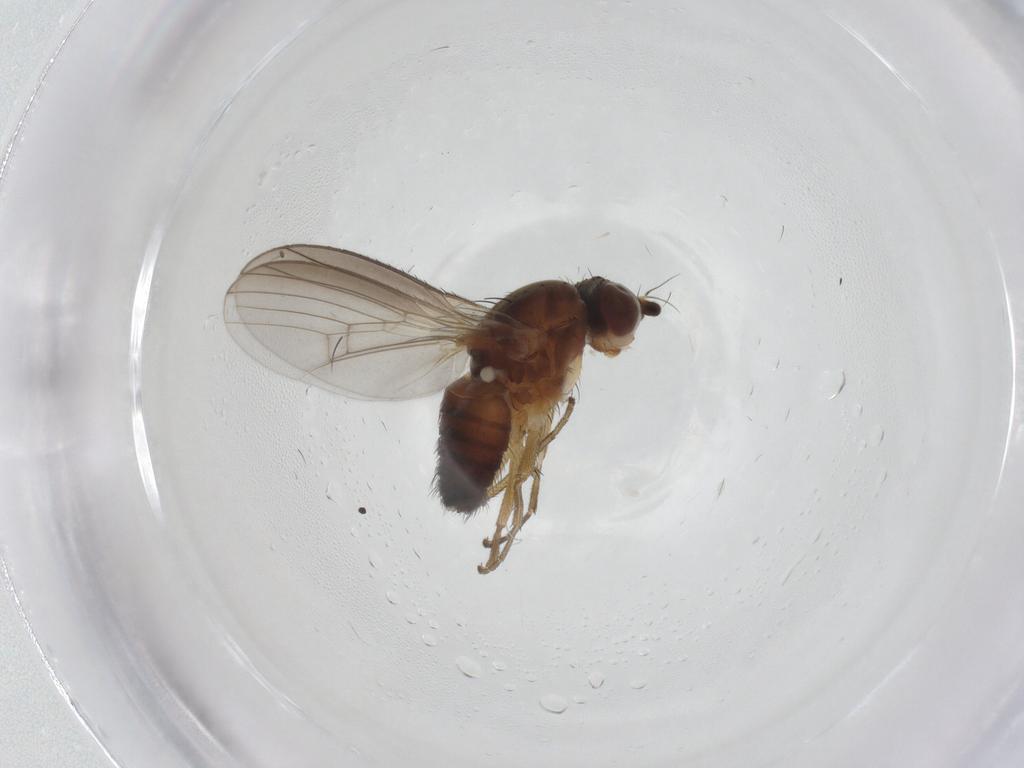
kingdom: Animalia
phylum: Arthropoda
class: Insecta
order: Diptera
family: Heleomyzidae
